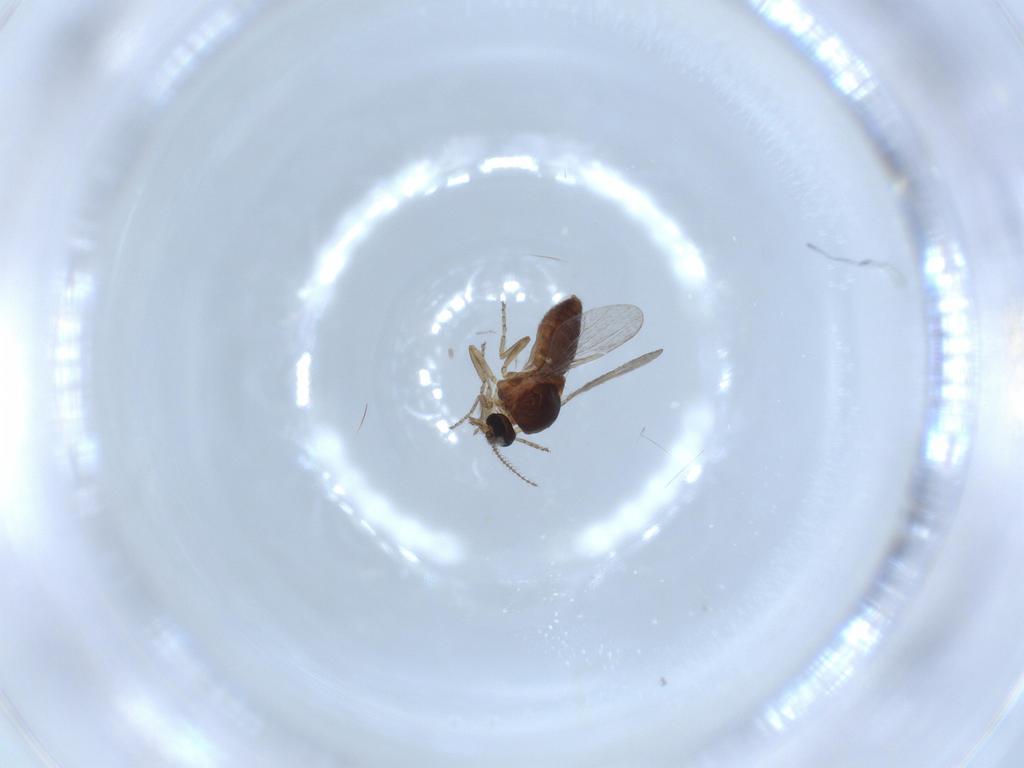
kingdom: Animalia
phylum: Arthropoda
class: Insecta
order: Diptera
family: Ceratopogonidae
